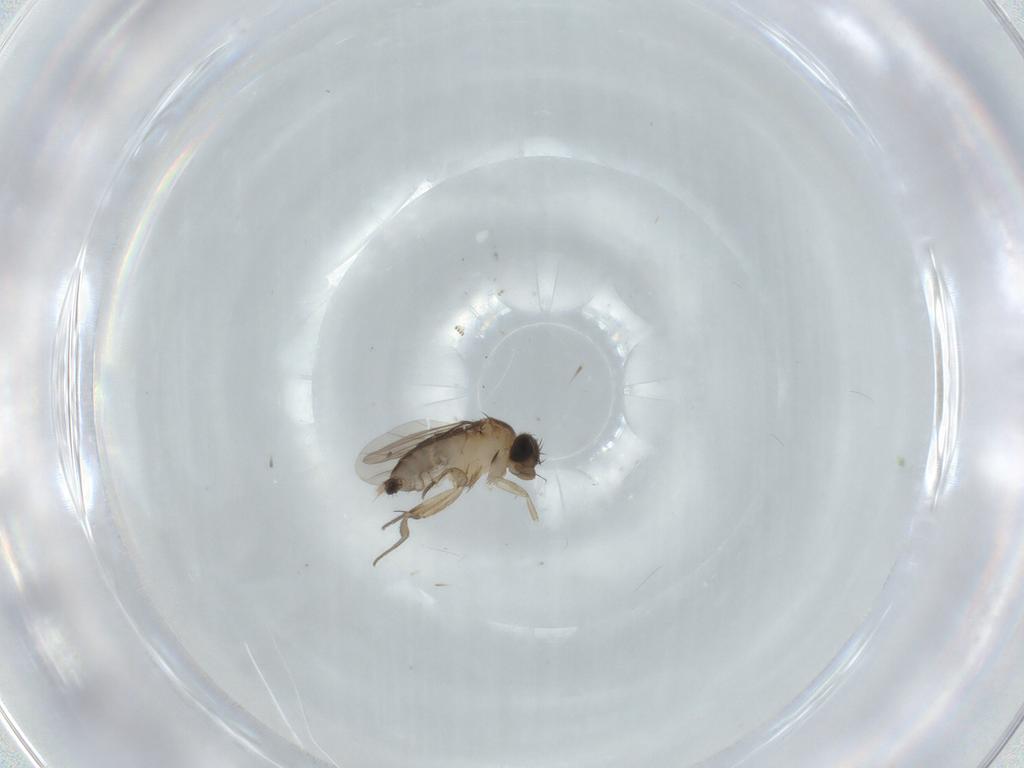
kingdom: Animalia
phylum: Arthropoda
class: Insecta
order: Diptera
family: Phoridae
